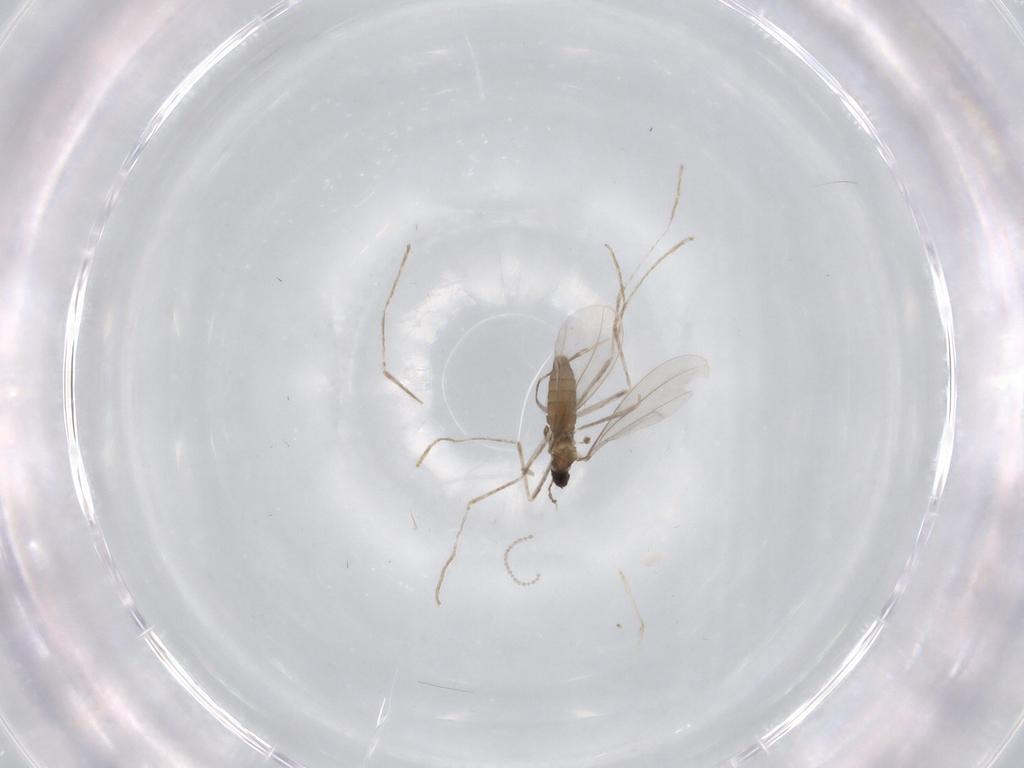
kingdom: Animalia
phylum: Arthropoda
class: Insecta
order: Diptera
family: Cecidomyiidae
